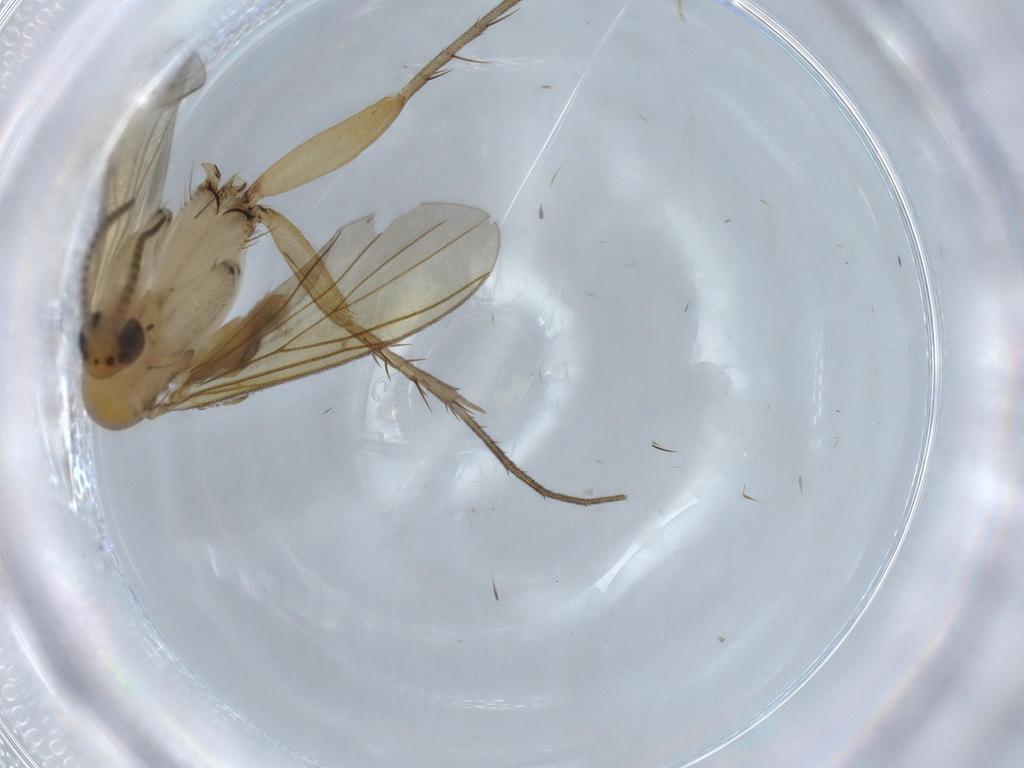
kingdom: Animalia
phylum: Arthropoda
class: Insecta
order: Diptera
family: Mycetophilidae
